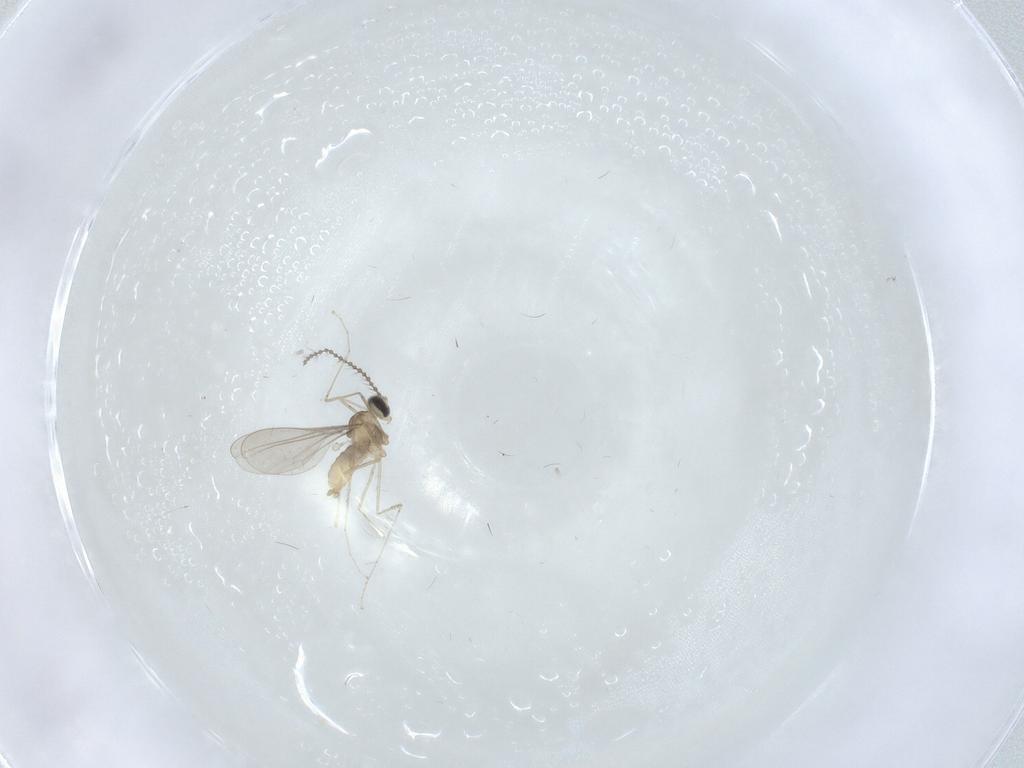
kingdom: Animalia
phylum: Arthropoda
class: Insecta
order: Diptera
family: Cecidomyiidae
